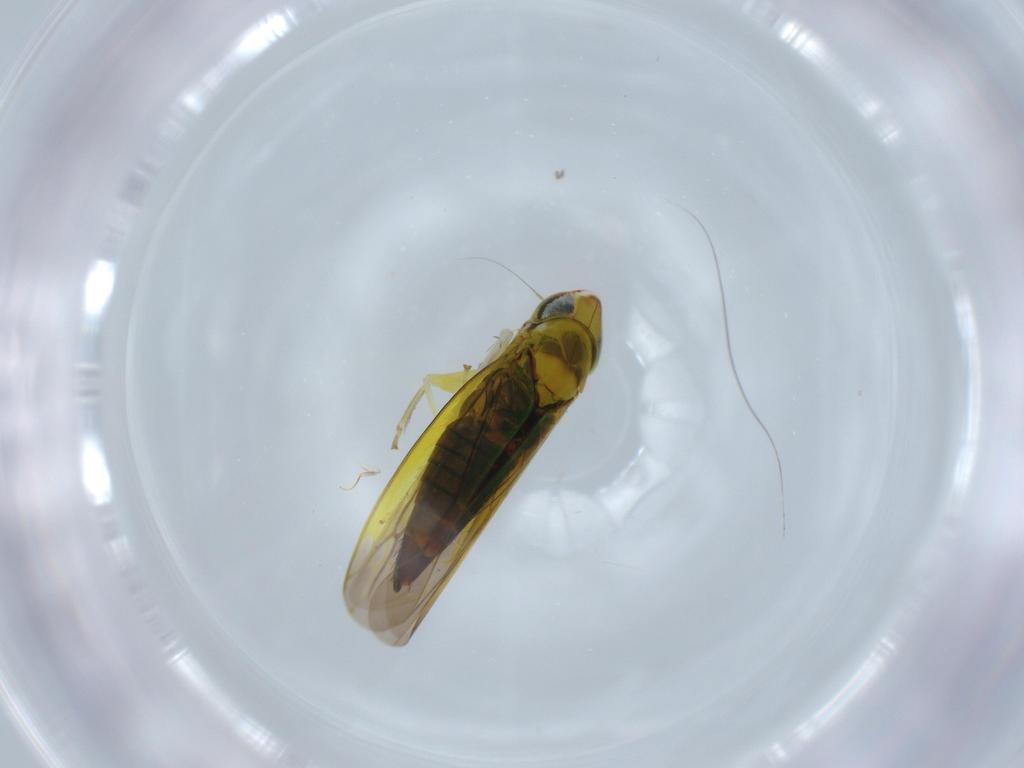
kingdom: Animalia
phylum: Arthropoda
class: Insecta
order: Hemiptera
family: Cicadellidae
